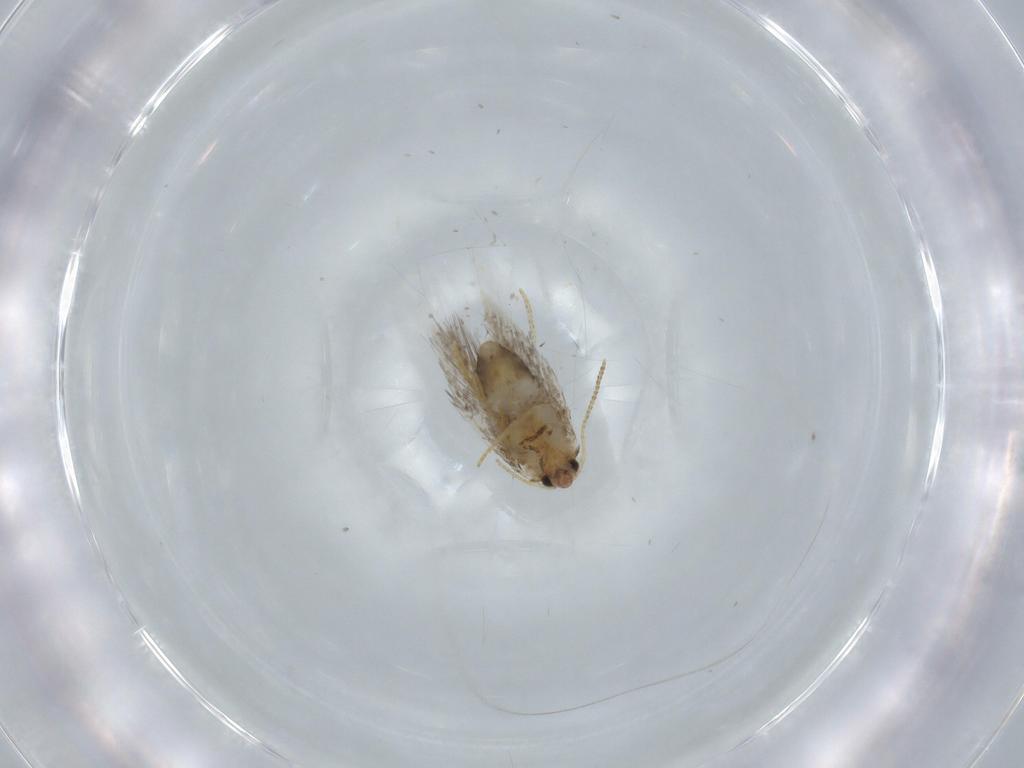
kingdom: Animalia
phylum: Arthropoda
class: Insecta
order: Lepidoptera
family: Nepticulidae
